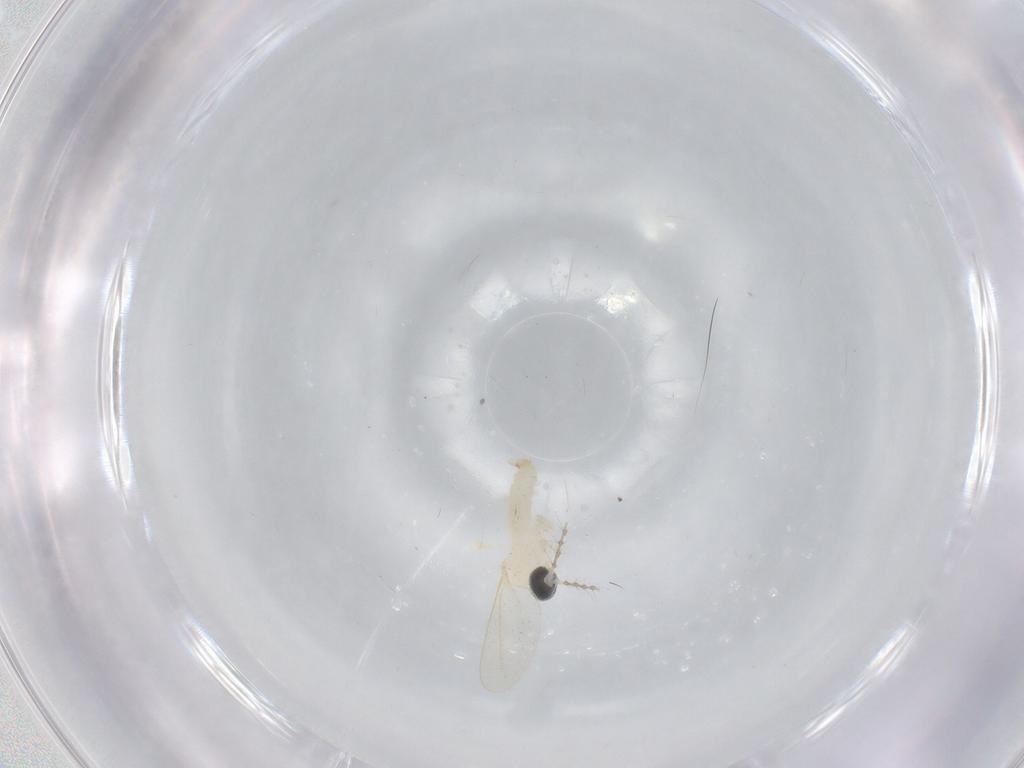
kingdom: Animalia
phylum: Arthropoda
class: Insecta
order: Diptera
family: Cecidomyiidae
